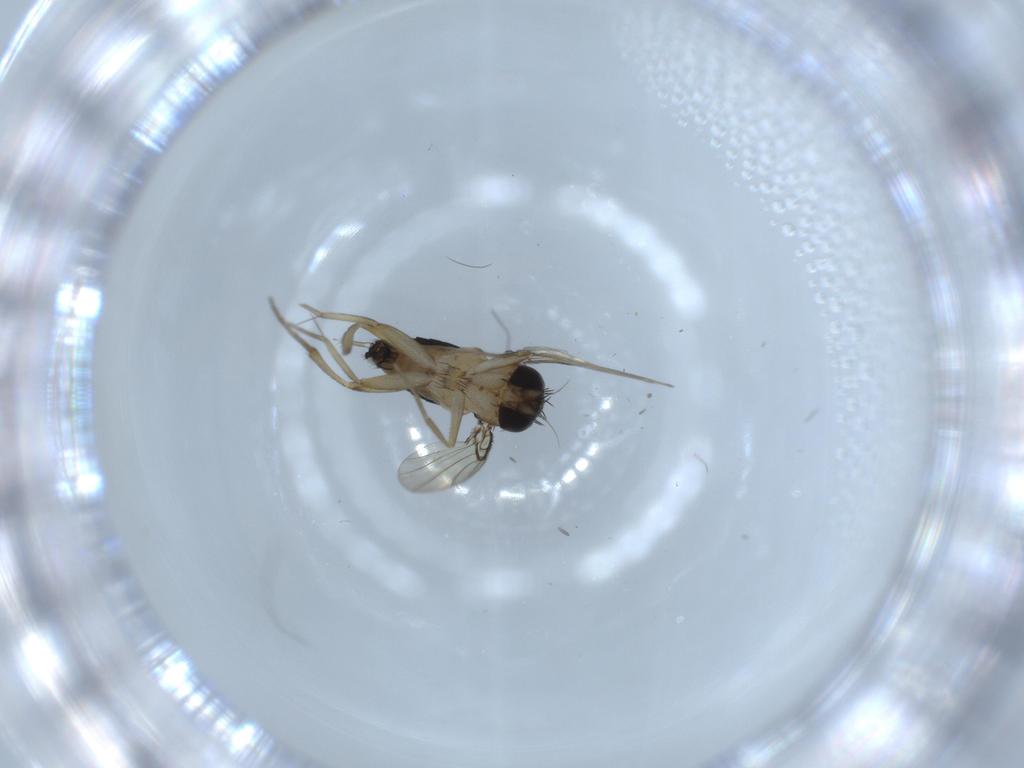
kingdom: Animalia
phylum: Arthropoda
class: Insecta
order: Diptera
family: Phoridae
